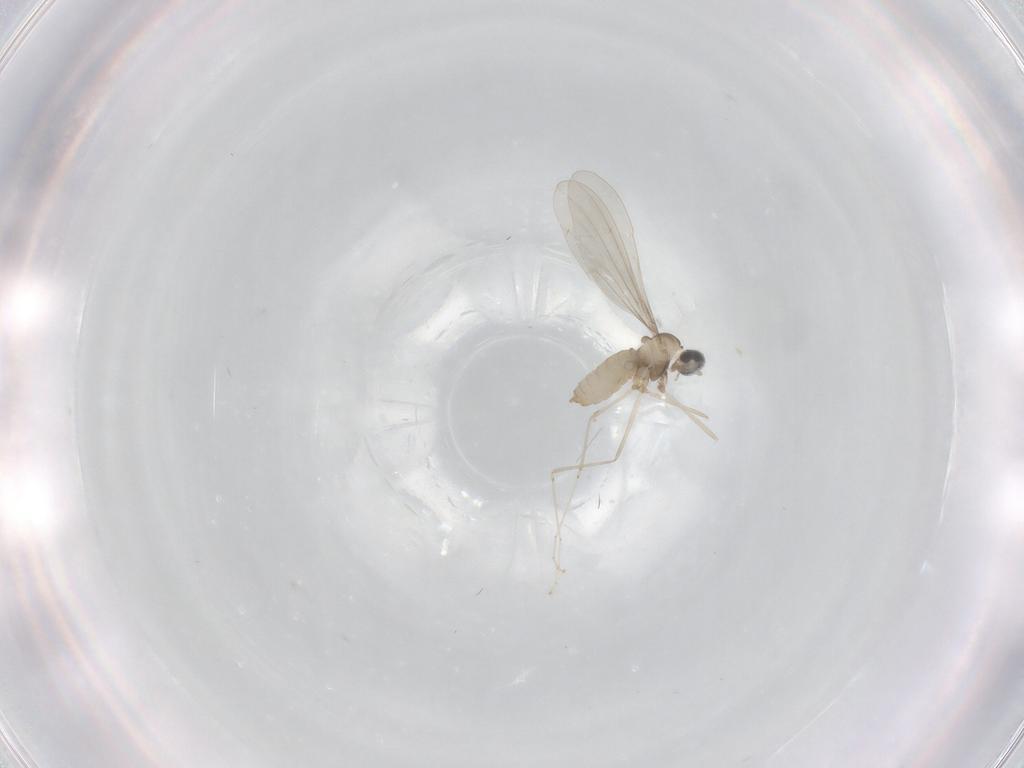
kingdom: Animalia
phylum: Arthropoda
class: Insecta
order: Diptera
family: Cecidomyiidae
